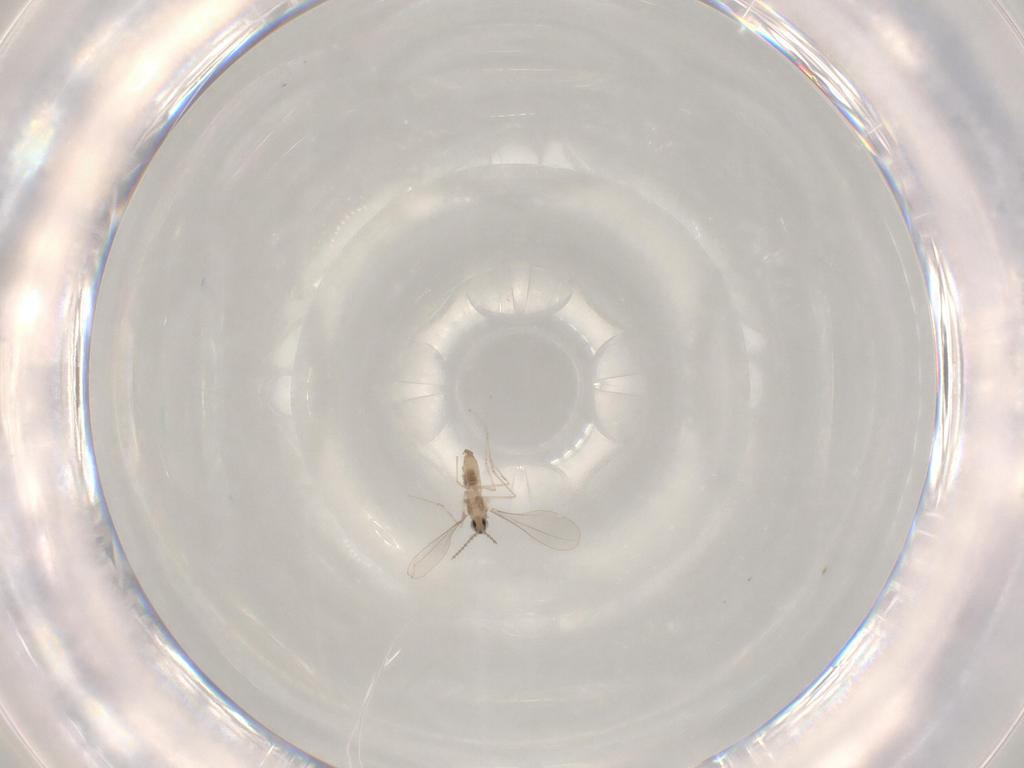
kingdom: Animalia
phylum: Arthropoda
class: Insecta
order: Diptera
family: Cecidomyiidae
